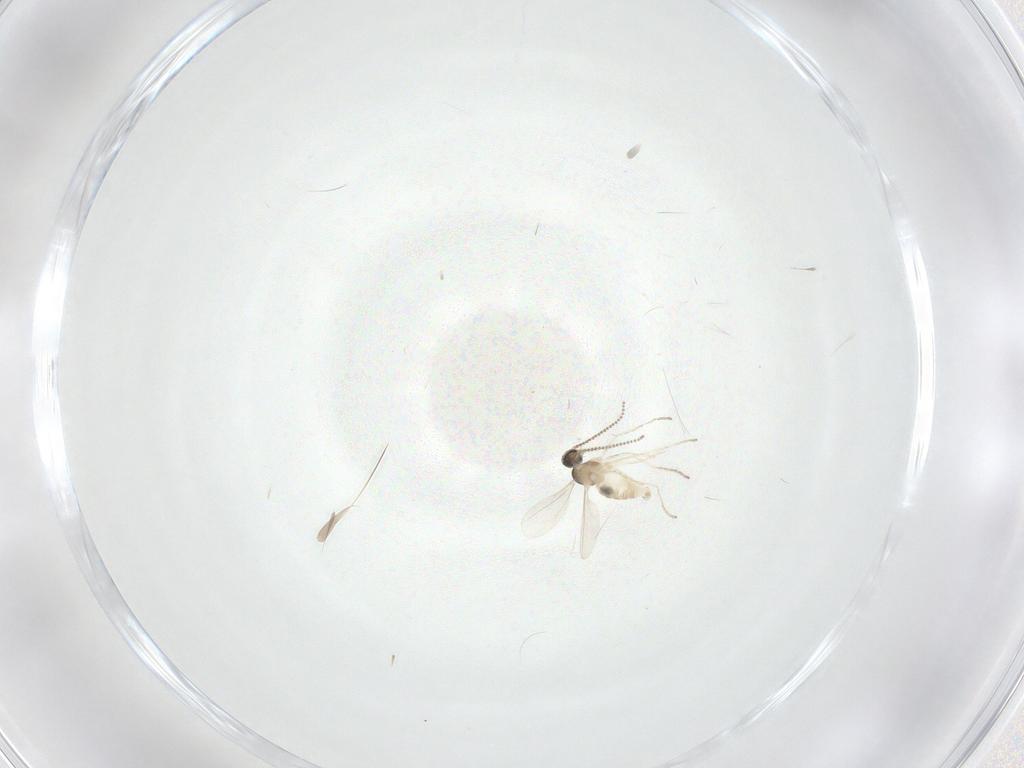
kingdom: Animalia
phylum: Arthropoda
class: Insecta
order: Diptera
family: Cecidomyiidae
